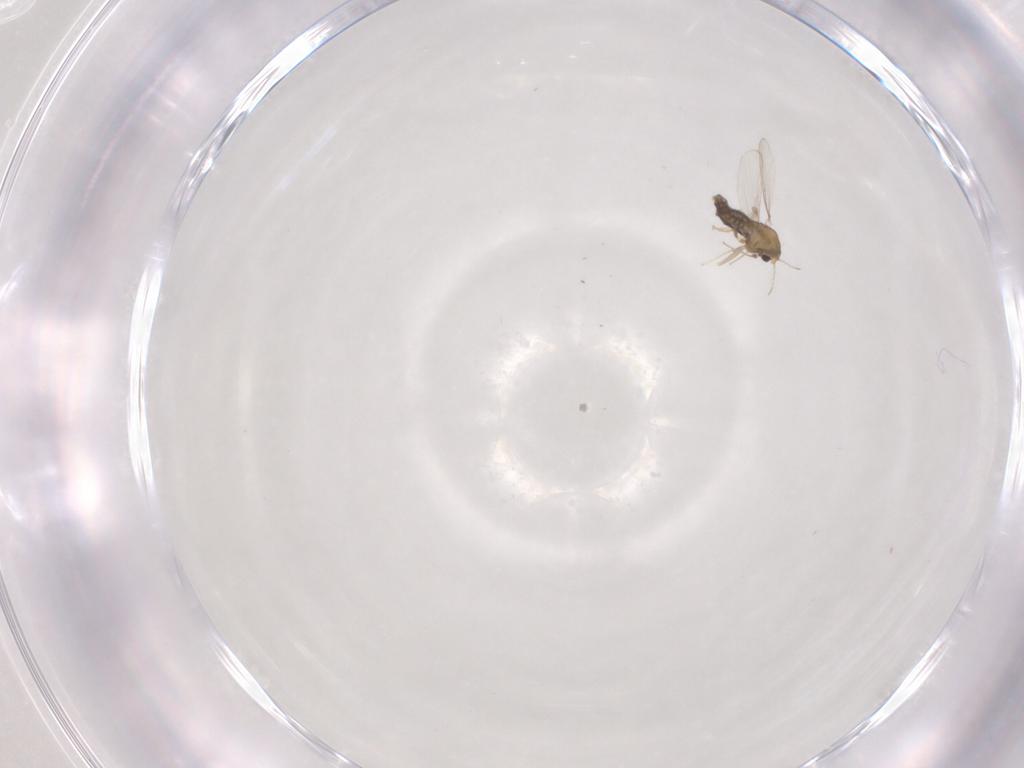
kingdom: Animalia
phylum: Arthropoda
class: Insecta
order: Diptera
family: Chironomidae
